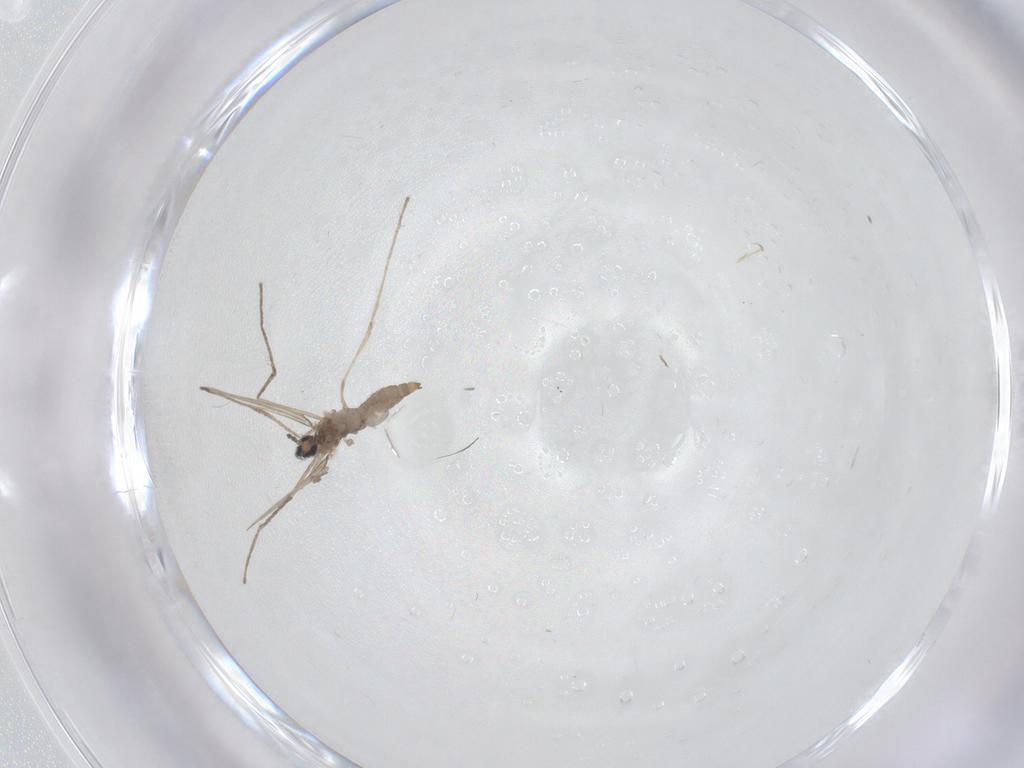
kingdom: Animalia
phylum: Arthropoda
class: Insecta
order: Diptera
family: Cecidomyiidae
